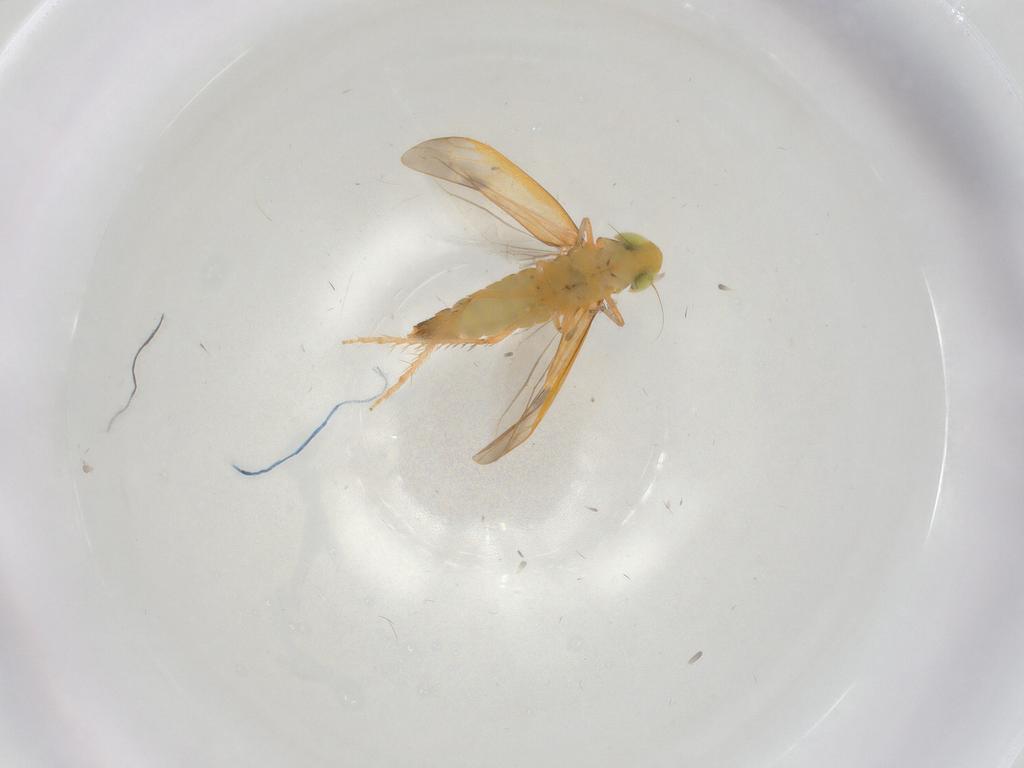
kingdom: Animalia
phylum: Arthropoda
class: Insecta
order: Hemiptera
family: Cicadellidae
